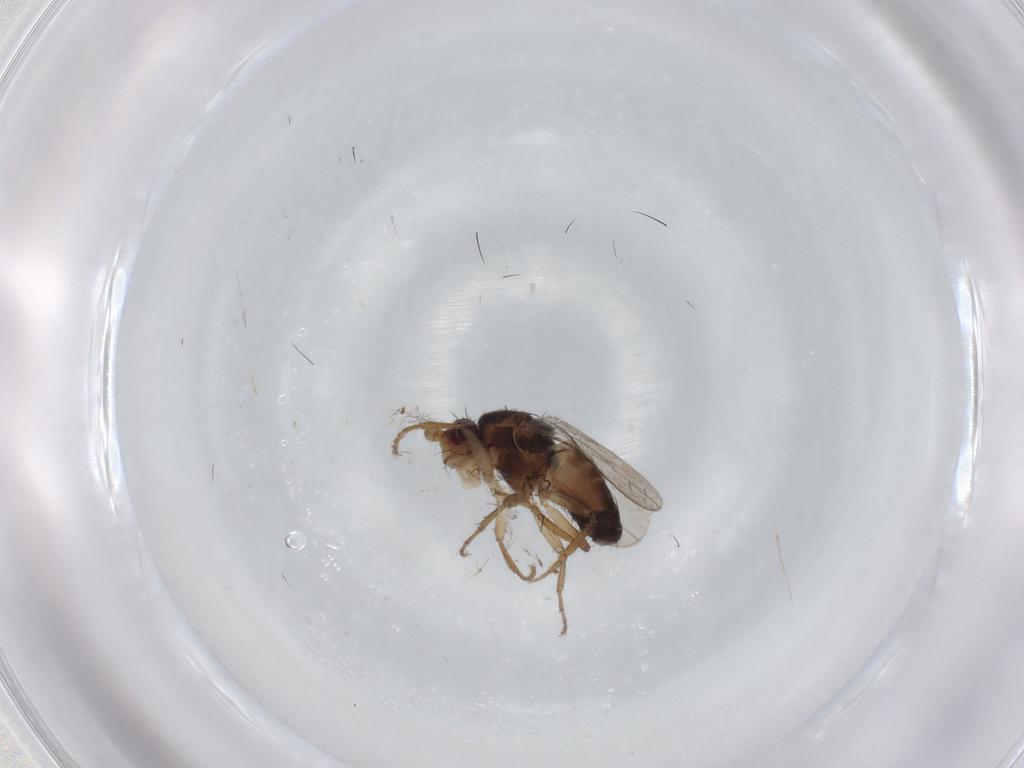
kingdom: Animalia
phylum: Arthropoda
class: Insecta
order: Diptera
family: Sphaeroceridae
